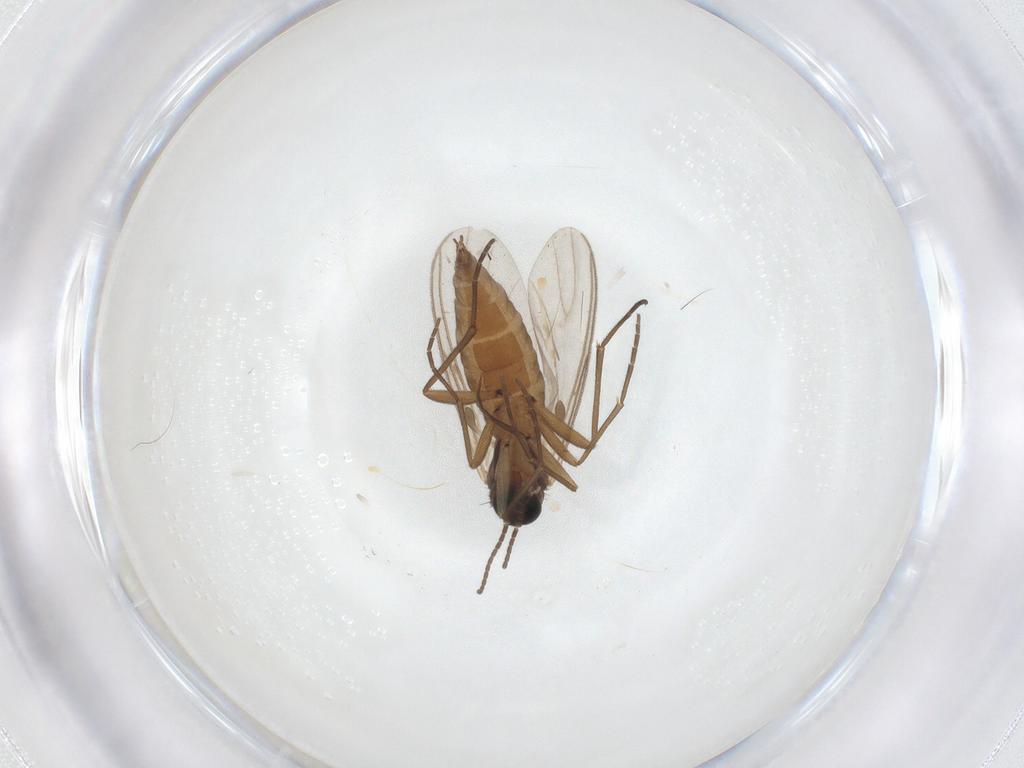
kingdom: Animalia
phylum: Arthropoda
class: Insecta
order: Diptera
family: Phoridae
